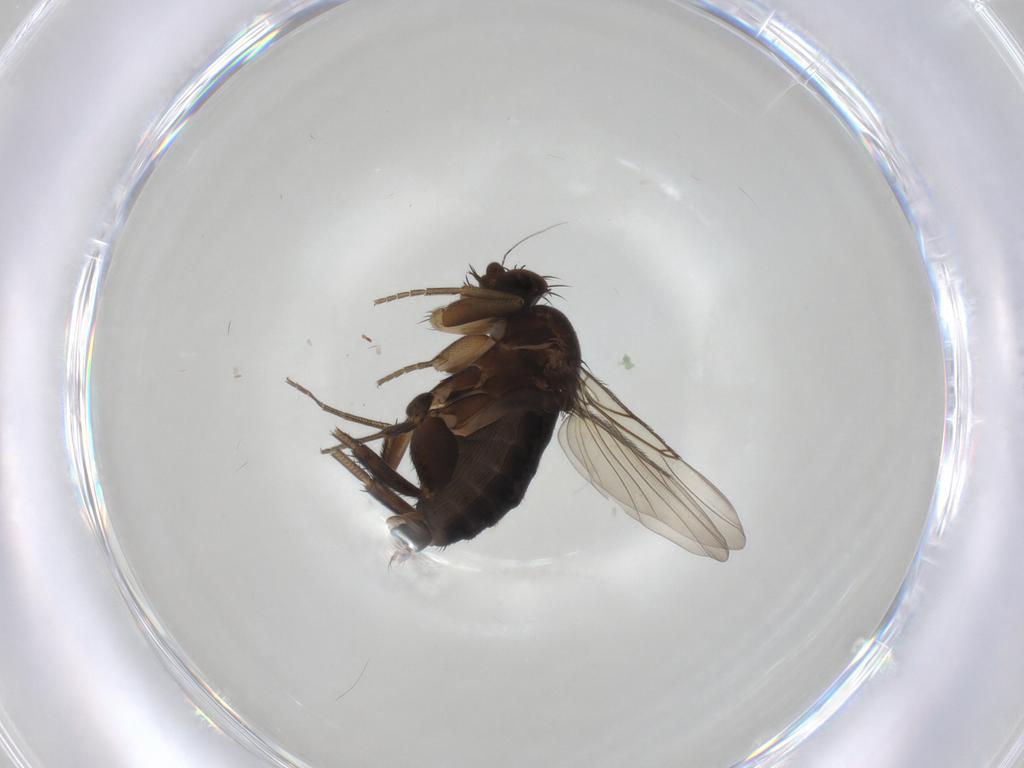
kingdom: Animalia
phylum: Arthropoda
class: Insecta
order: Diptera
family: Phoridae
